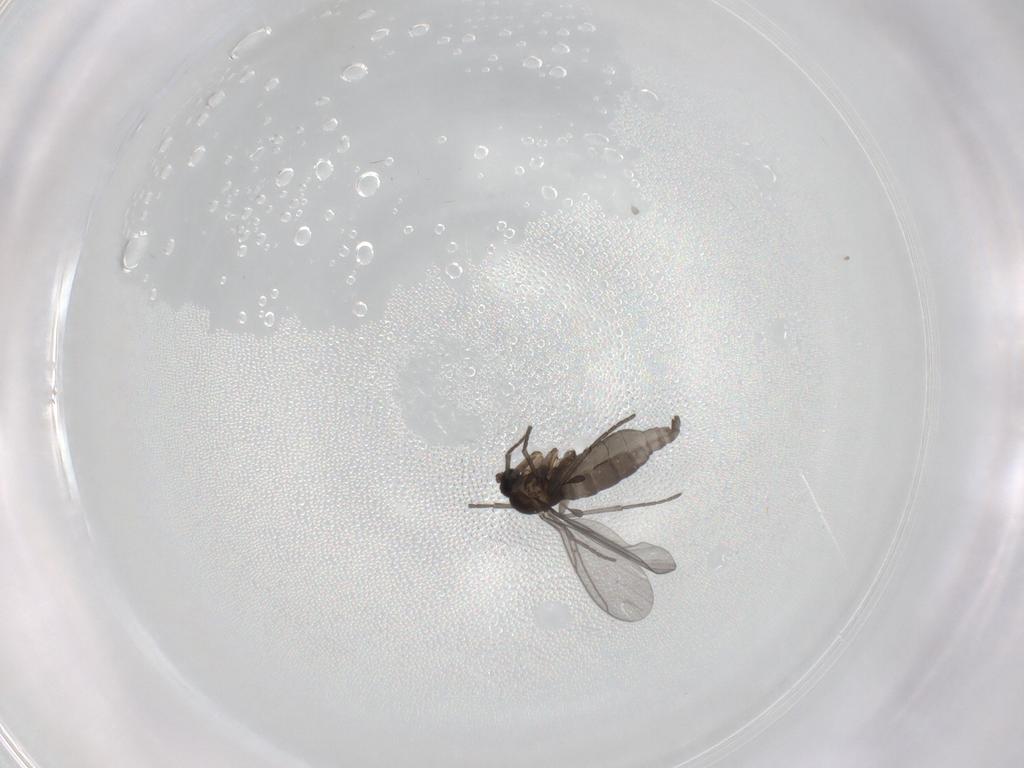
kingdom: Animalia
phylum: Arthropoda
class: Insecta
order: Diptera
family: Sciaridae
